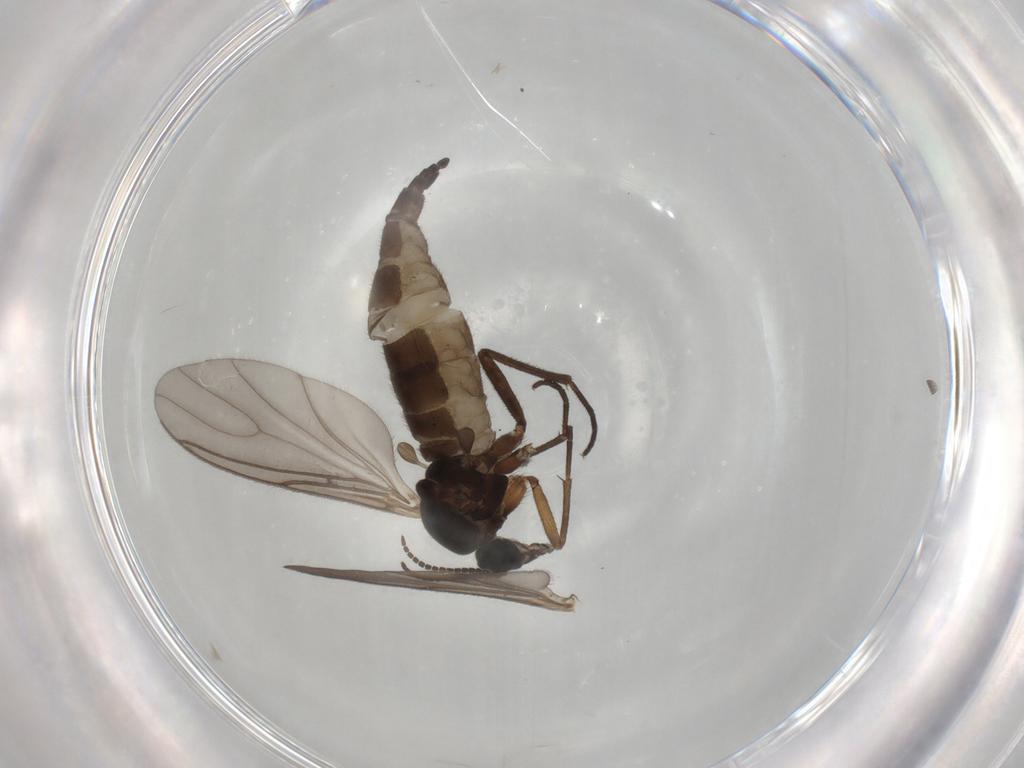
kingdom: Animalia
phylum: Arthropoda
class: Insecta
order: Diptera
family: Sciaridae
